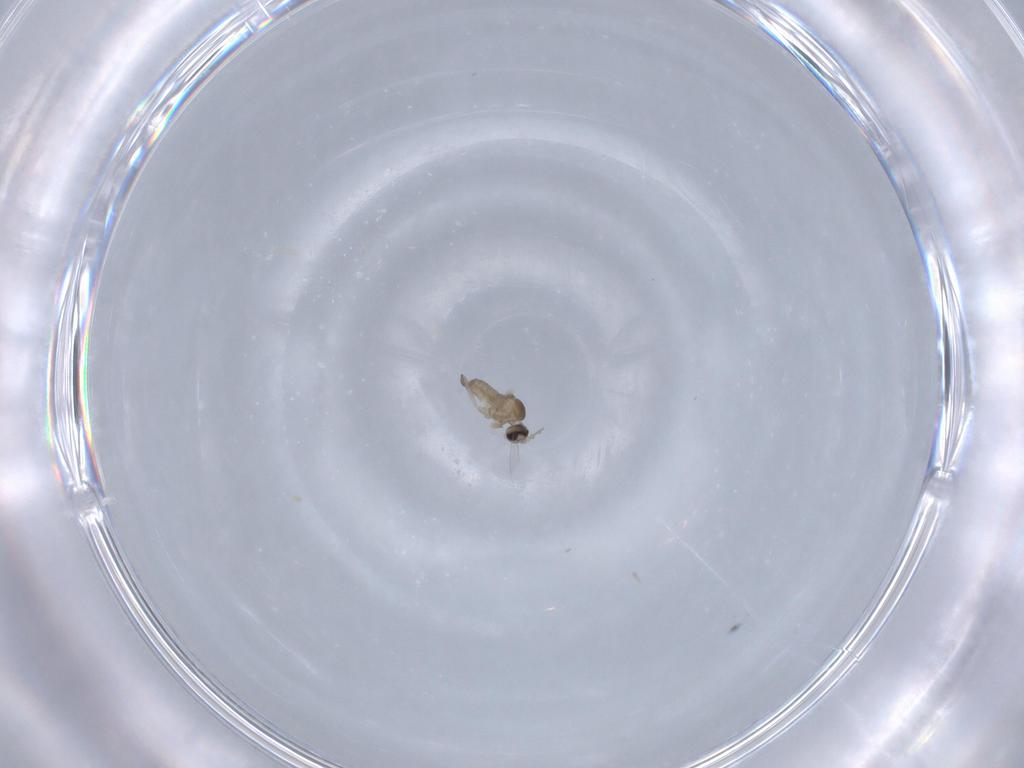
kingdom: Animalia
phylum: Arthropoda
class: Insecta
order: Diptera
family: Cecidomyiidae
